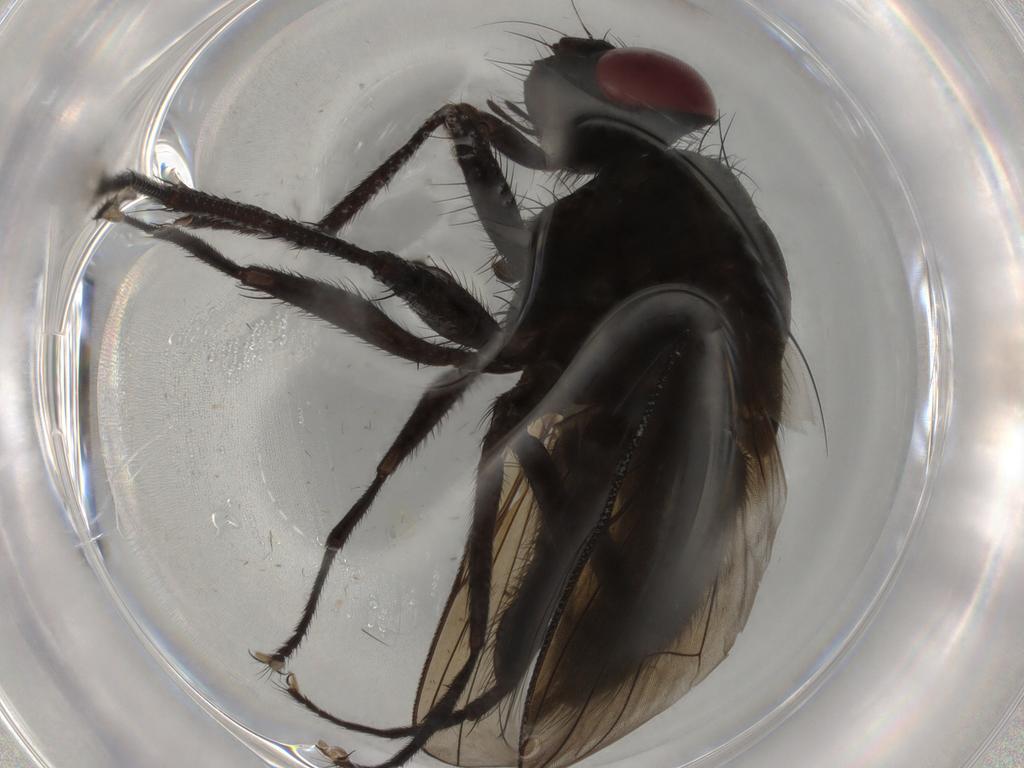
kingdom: Animalia
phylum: Arthropoda
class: Insecta
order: Diptera
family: Muscidae
